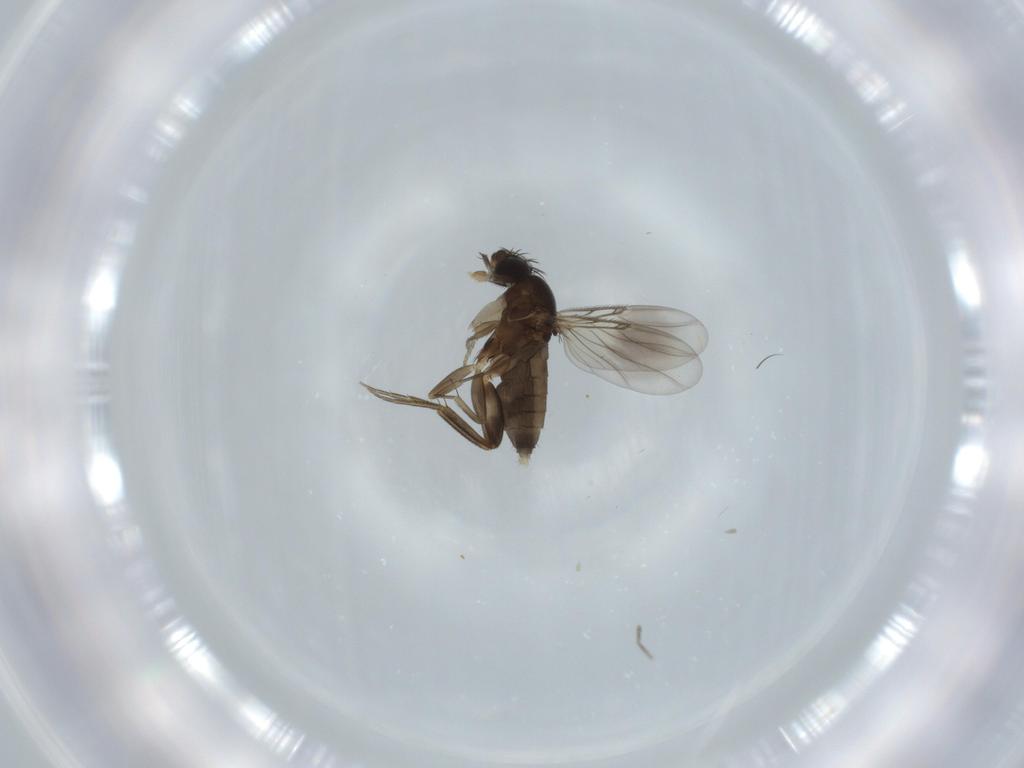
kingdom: Animalia
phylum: Arthropoda
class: Insecta
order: Diptera
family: Phoridae
